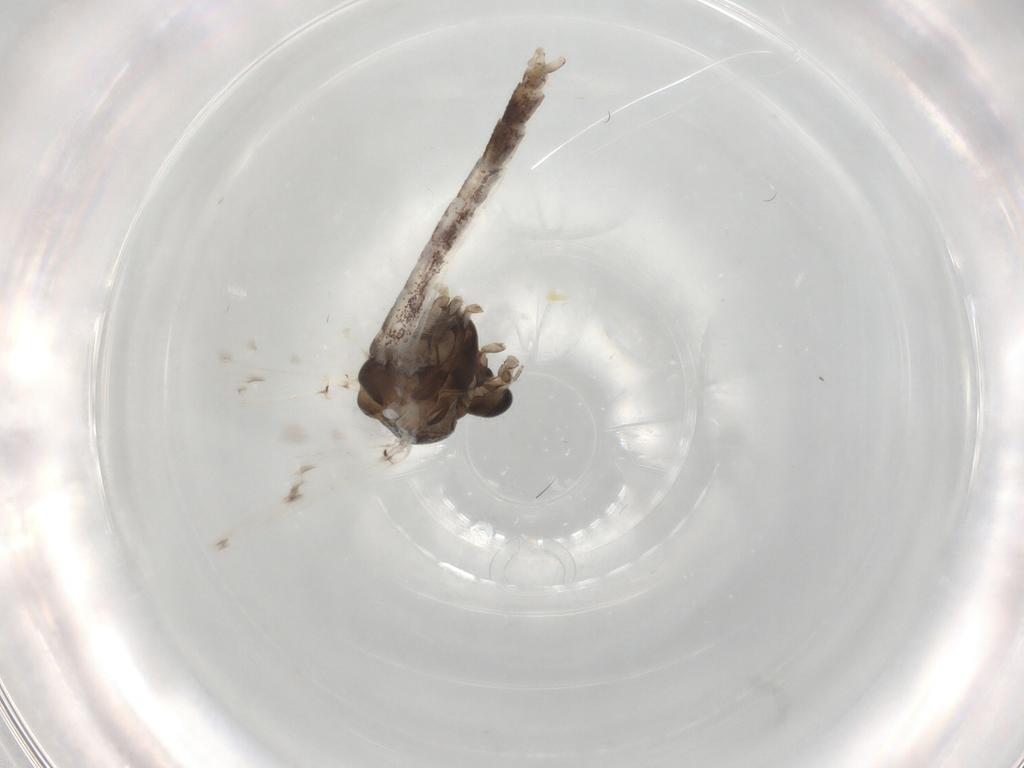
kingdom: Animalia
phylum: Arthropoda
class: Insecta
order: Diptera
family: Chironomidae
